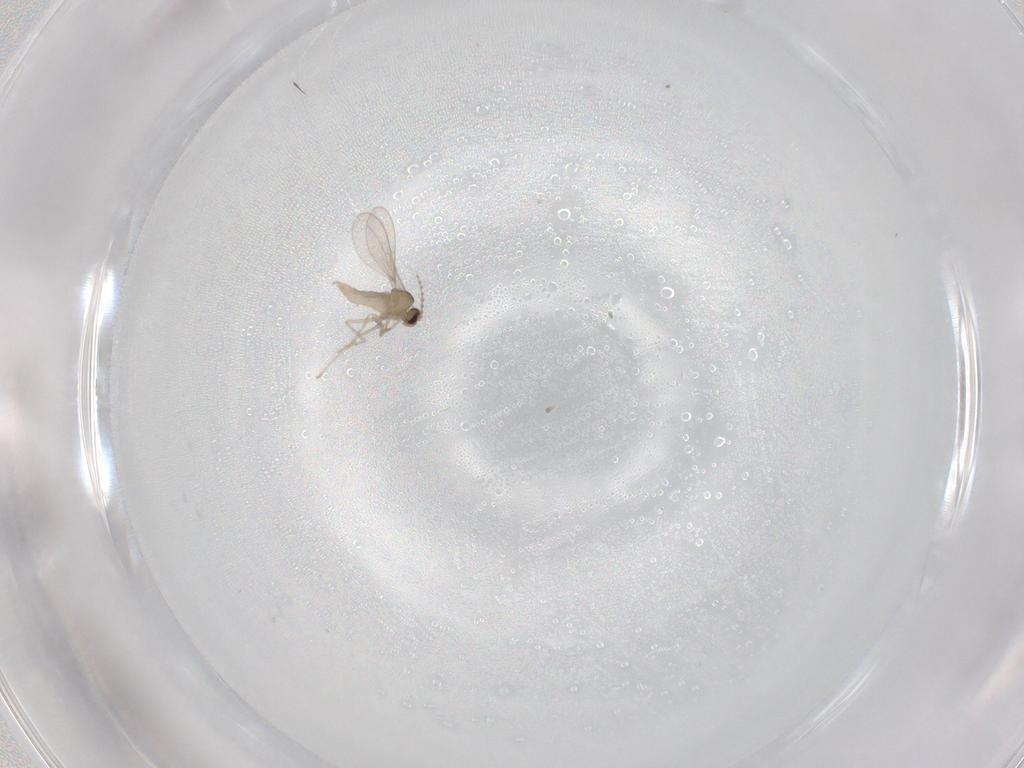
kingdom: Animalia
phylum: Arthropoda
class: Insecta
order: Diptera
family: Cecidomyiidae
